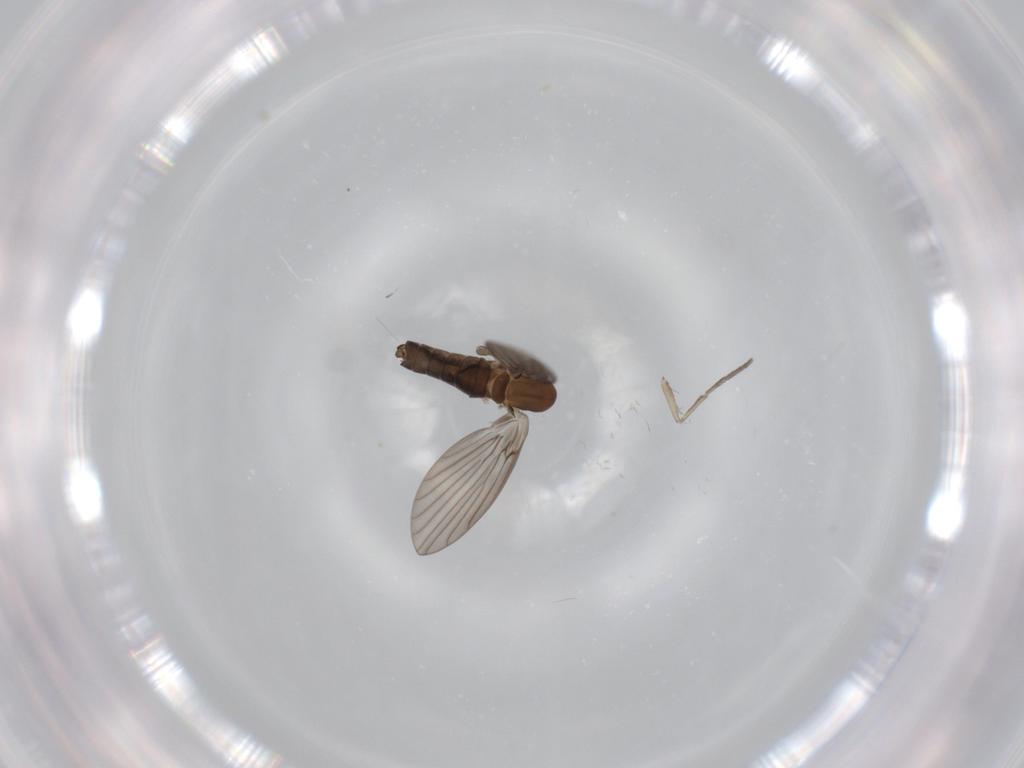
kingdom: Animalia
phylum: Arthropoda
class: Insecta
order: Diptera
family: Psychodidae
